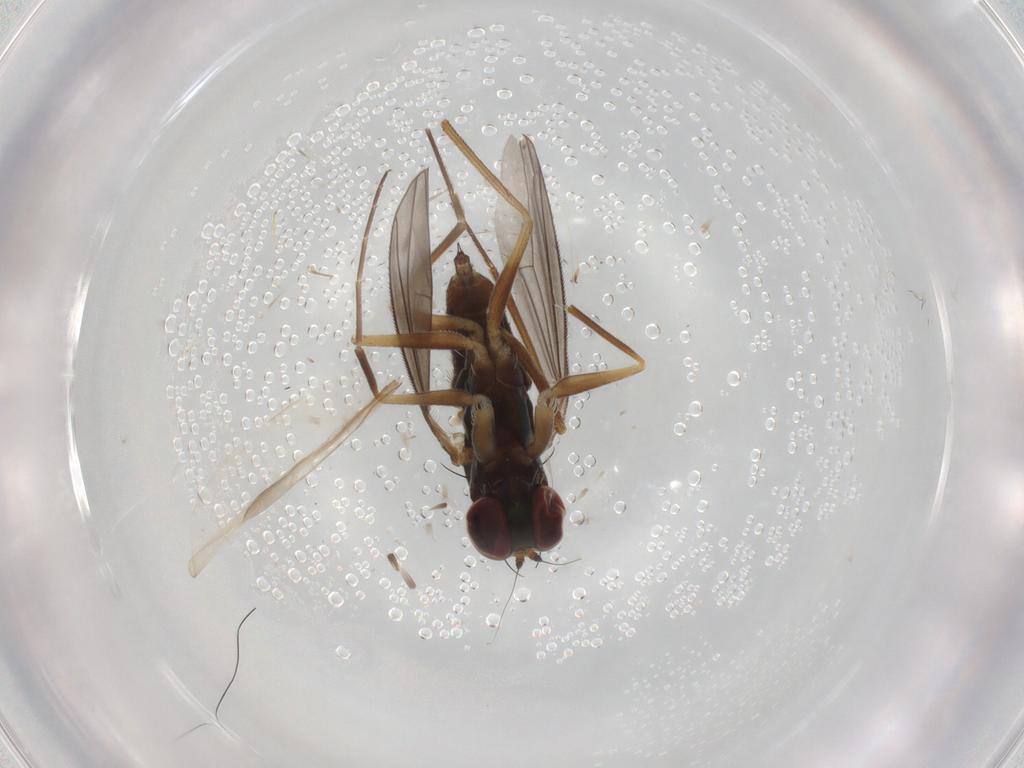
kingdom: Animalia
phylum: Arthropoda
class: Insecta
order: Diptera
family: Dolichopodidae
